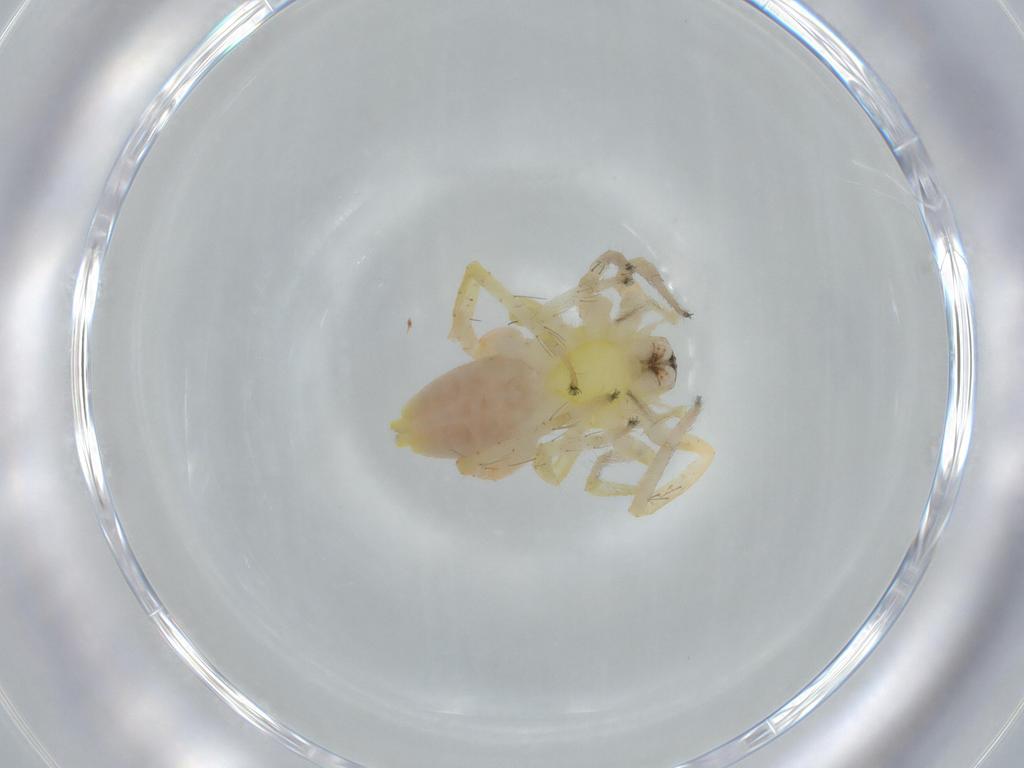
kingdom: Animalia
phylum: Arthropoda
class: Arachnida
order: Araneae
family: Anyphaenidae
